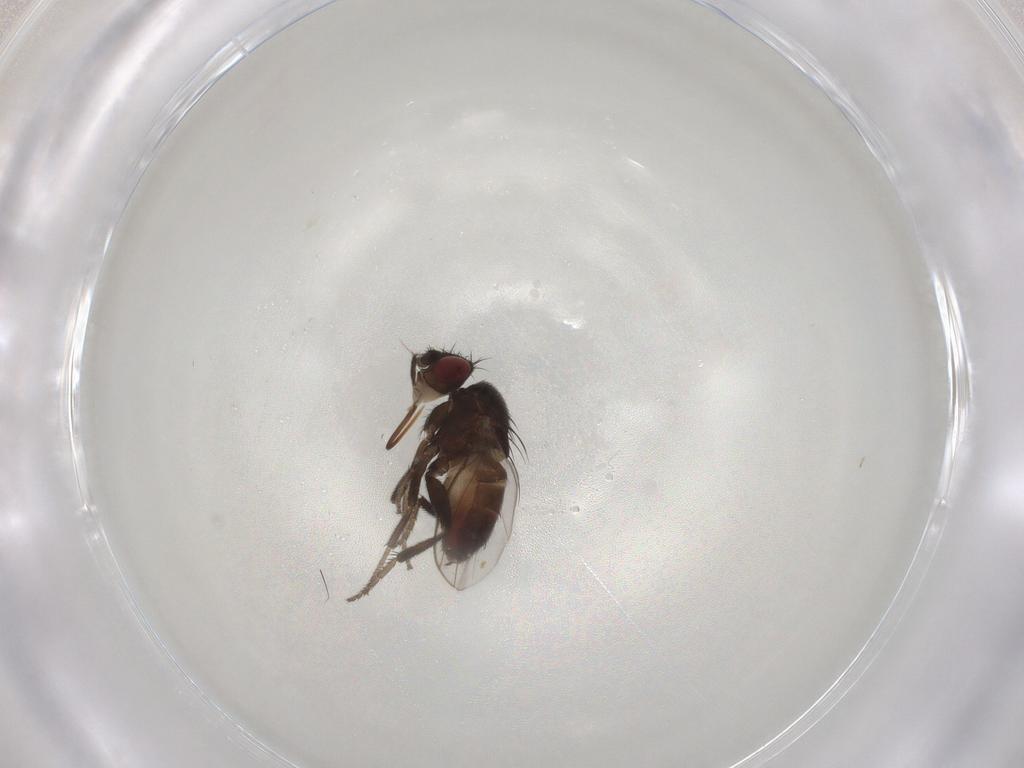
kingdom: Animalia
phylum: Arthropoda
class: Insecta
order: Diptera
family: Milichiidae
